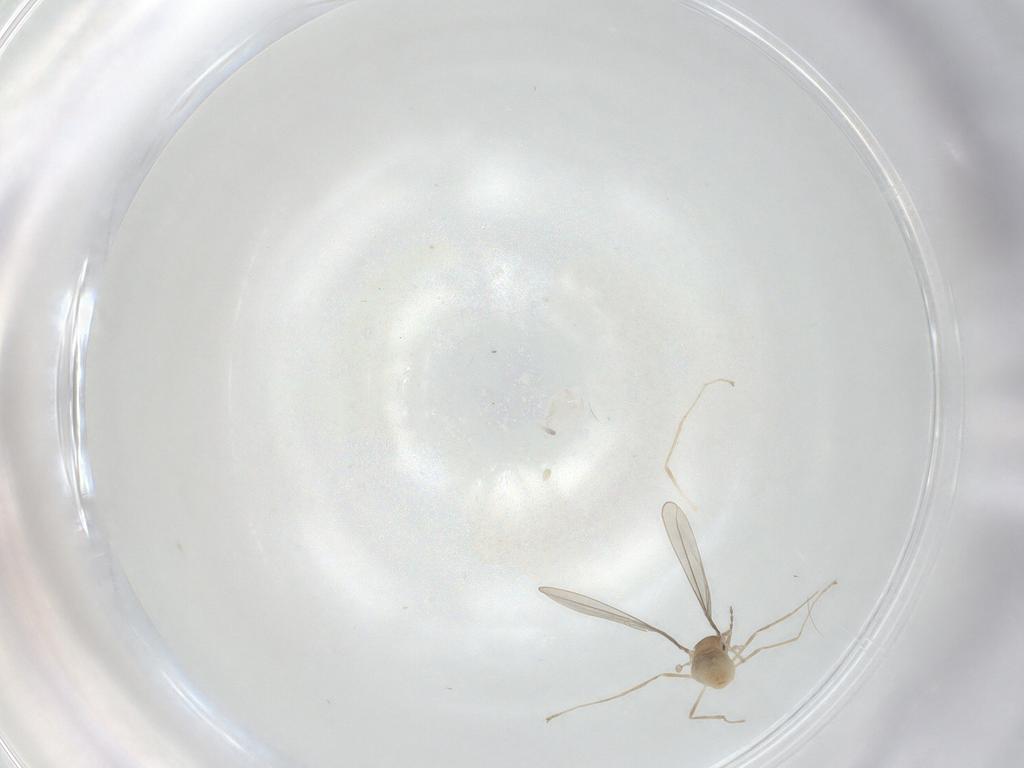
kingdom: Animalia
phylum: Arthropoda
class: Insecta
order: Diptera
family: Cecidomyiidae
